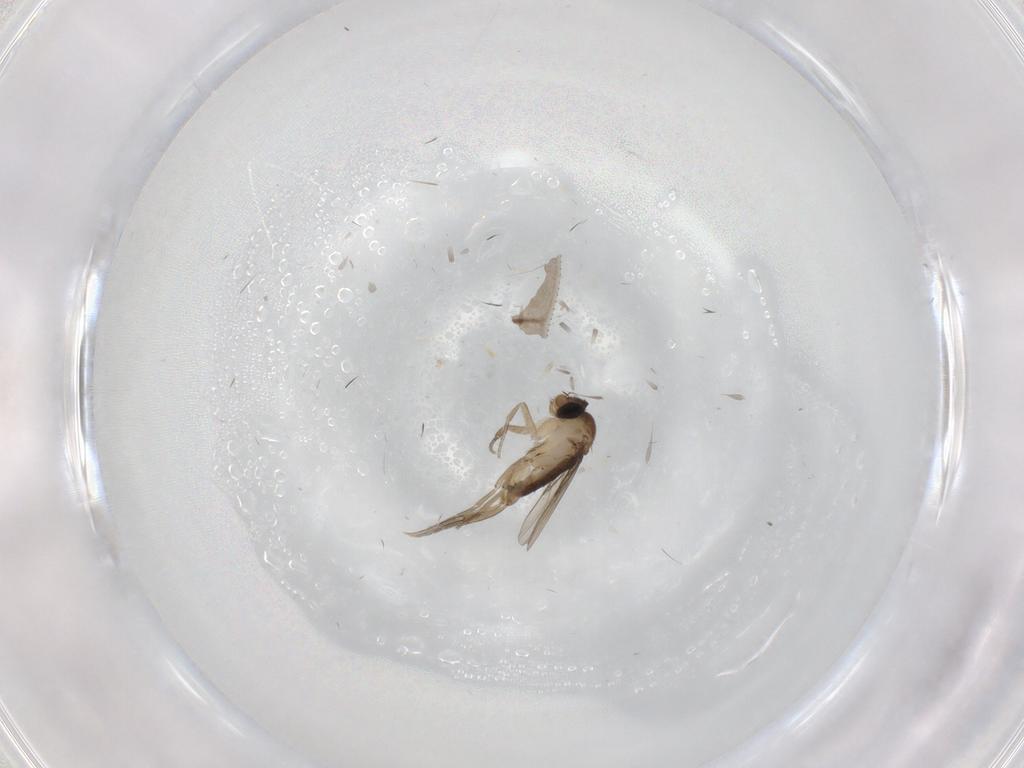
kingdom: Animalia
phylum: Arthropoda
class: Insecta
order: Diptera
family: Phoridae
